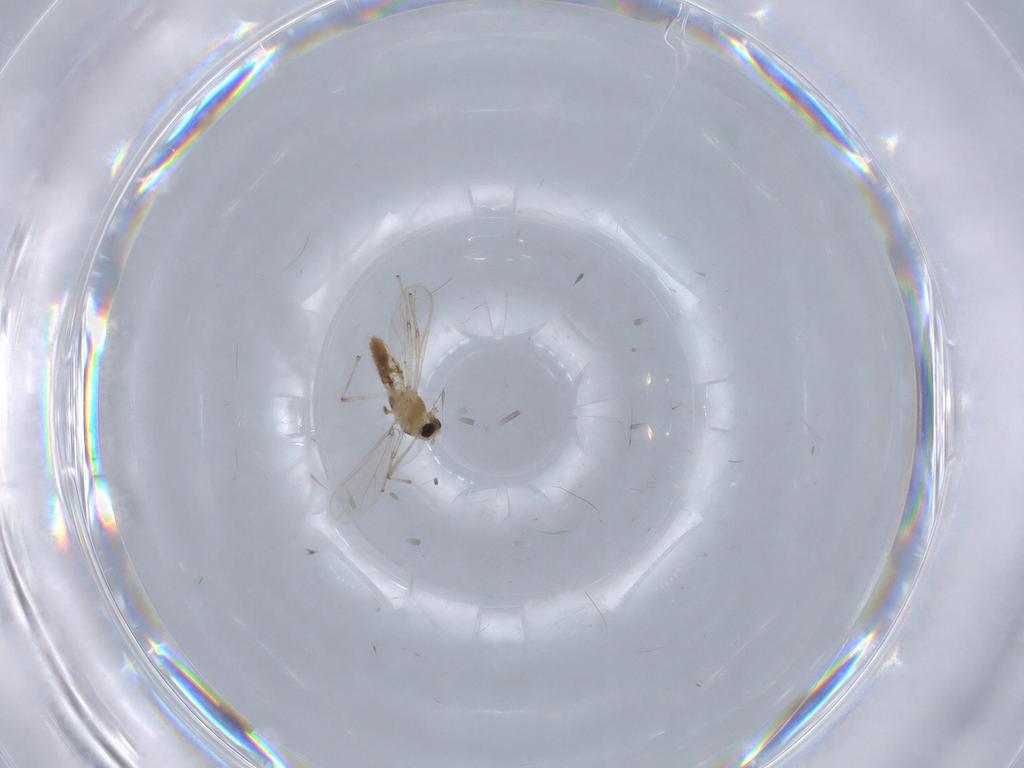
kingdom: Animalia
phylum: Arthropoda
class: Insecta
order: Diptera
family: Chironomidae
